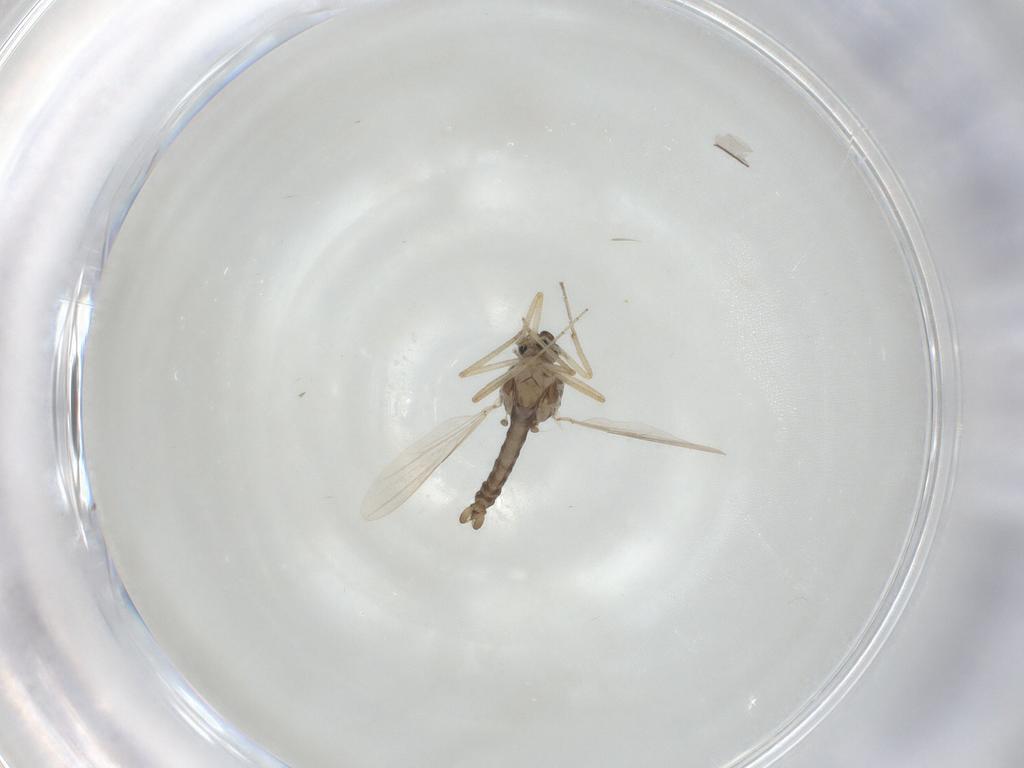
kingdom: Animalia
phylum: Arthropoda
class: Insecta
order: Diptera
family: Ceratopogonidae
